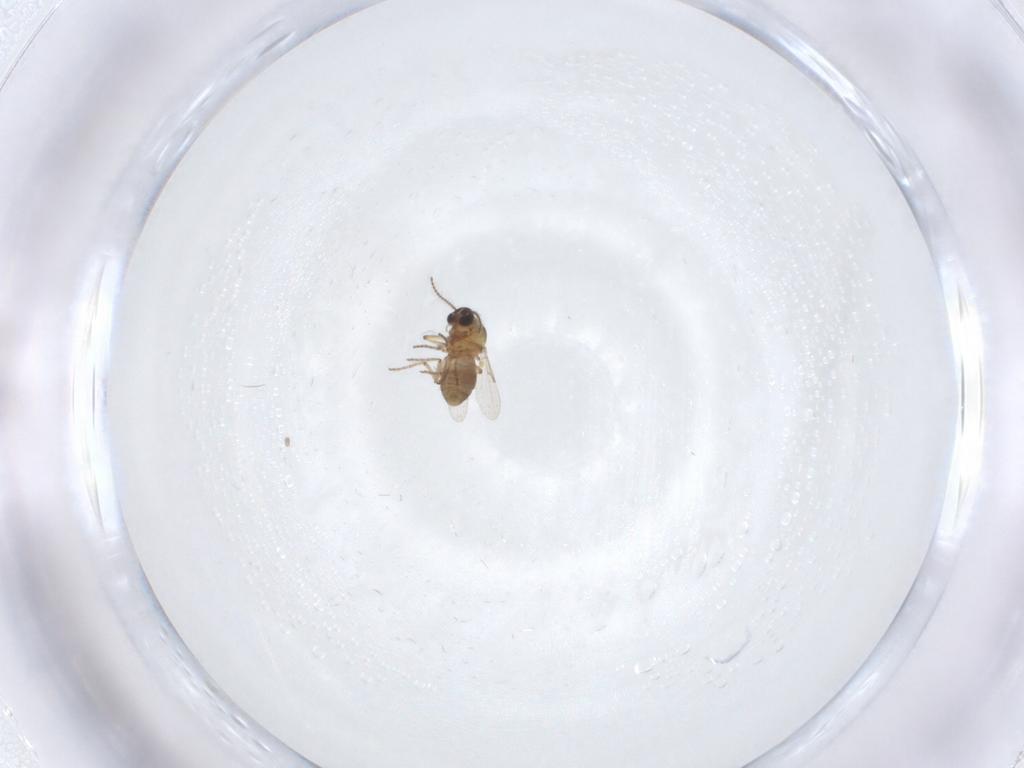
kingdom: Animalia
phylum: Arthropoda
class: Insecta
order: Diptera
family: Ceratopogonidae
